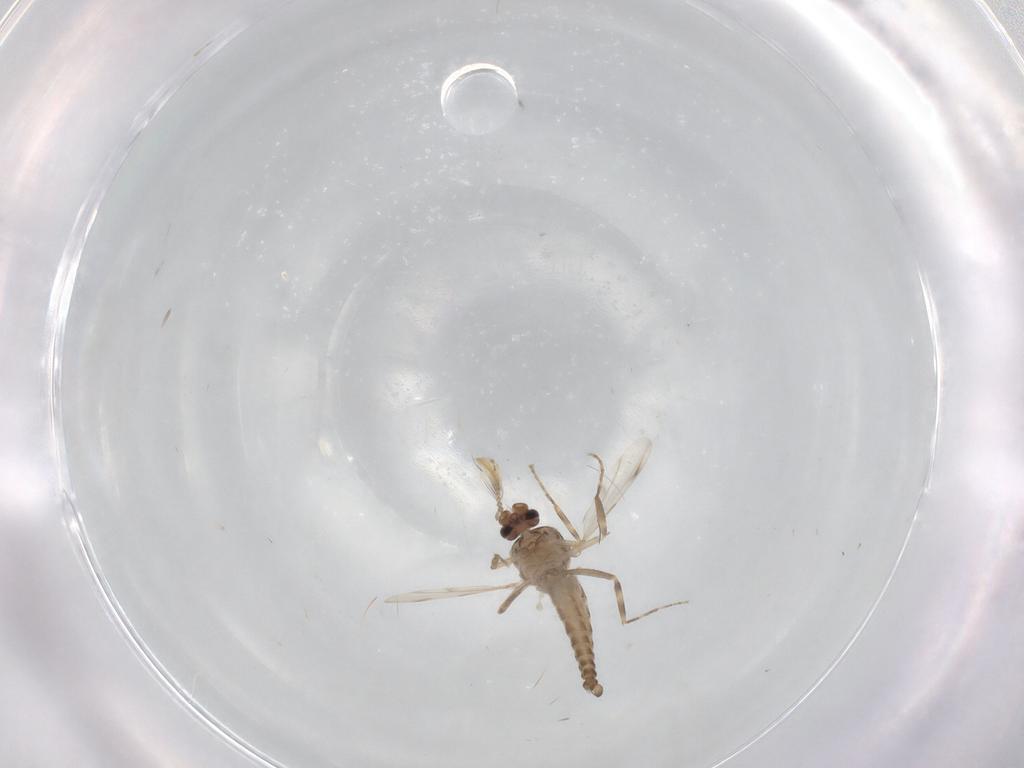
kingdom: Animalia
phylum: Arthropoda
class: Insecta
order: Diptera
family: Ceratopogonidae
